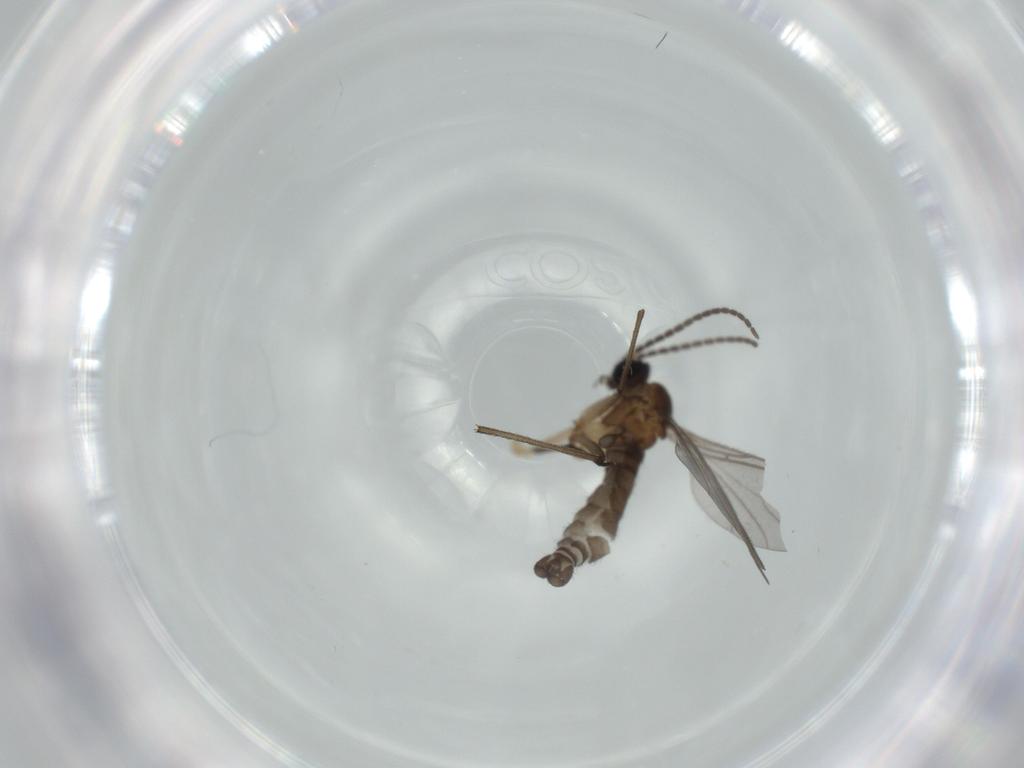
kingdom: Animalia
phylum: Arthropoda
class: Insecta
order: Diptera
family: Sciaridae
